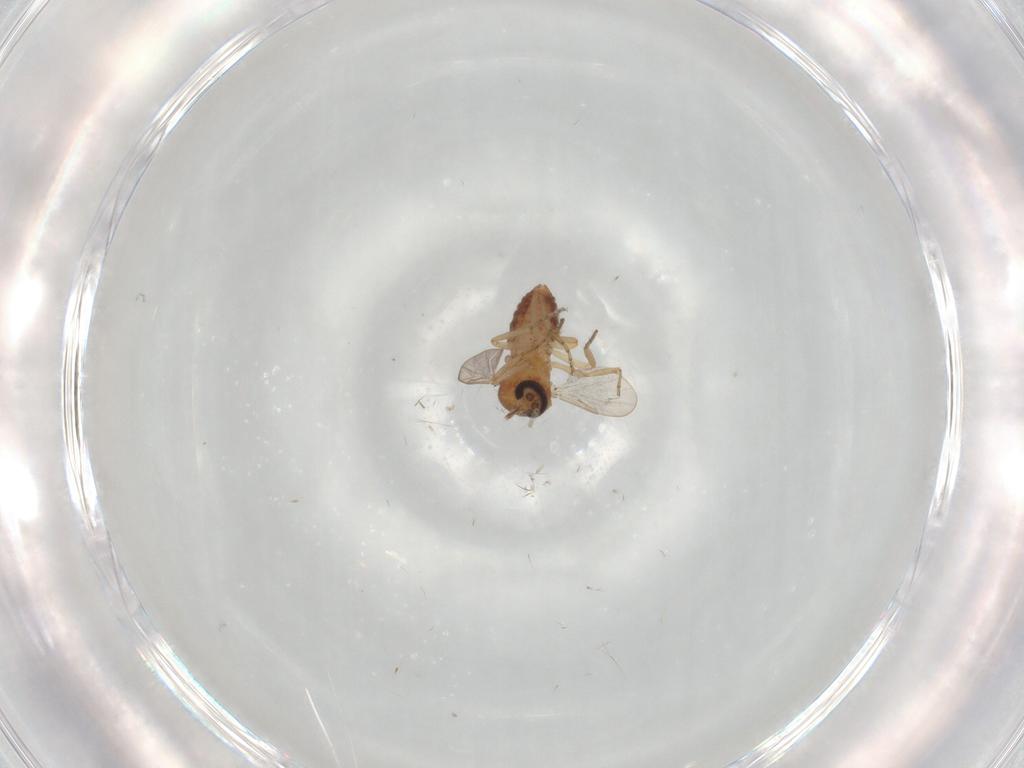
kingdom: Animalia
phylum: Arthropoda
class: Insecta
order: Diptera
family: Ceratopogonidae
